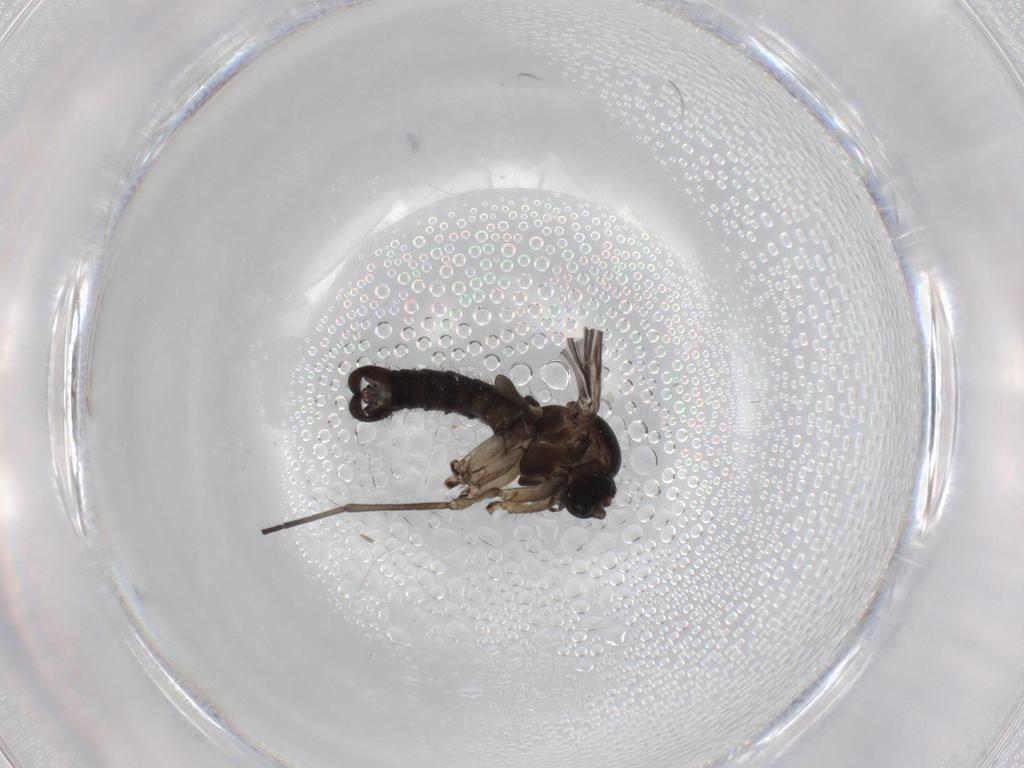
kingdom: Animalia
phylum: Arthropoda
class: Insecta
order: Diptera
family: Sciaridae
